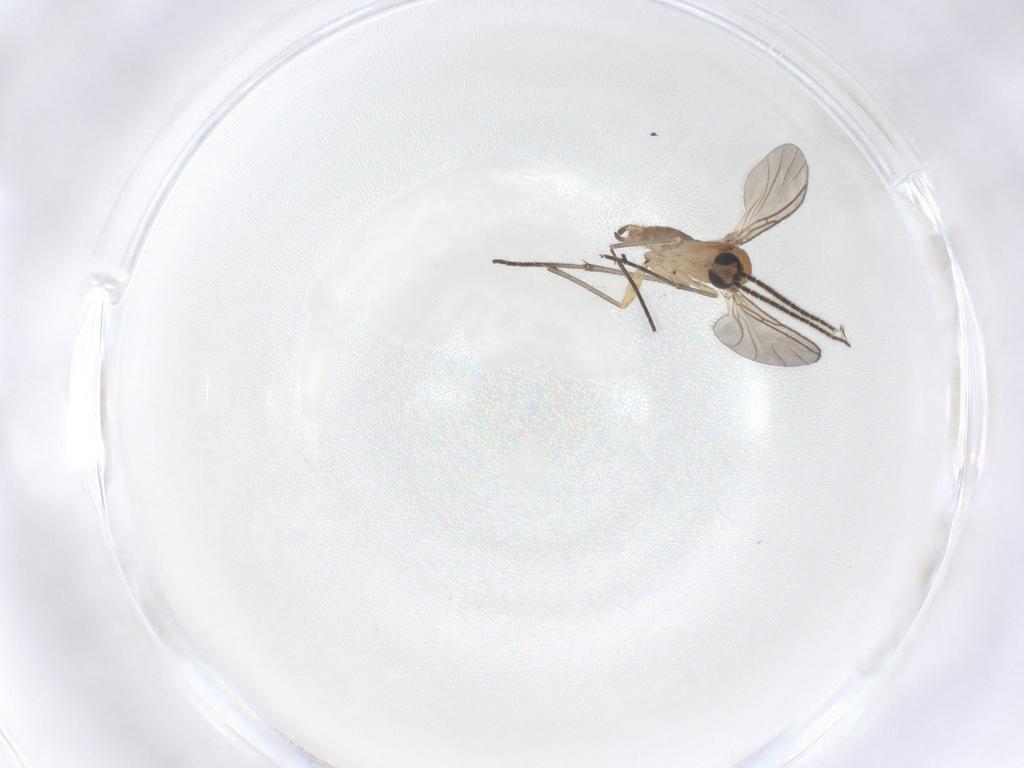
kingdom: Animalia
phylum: Arthropoda
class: Insecta
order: Diptera
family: Sciaridae
